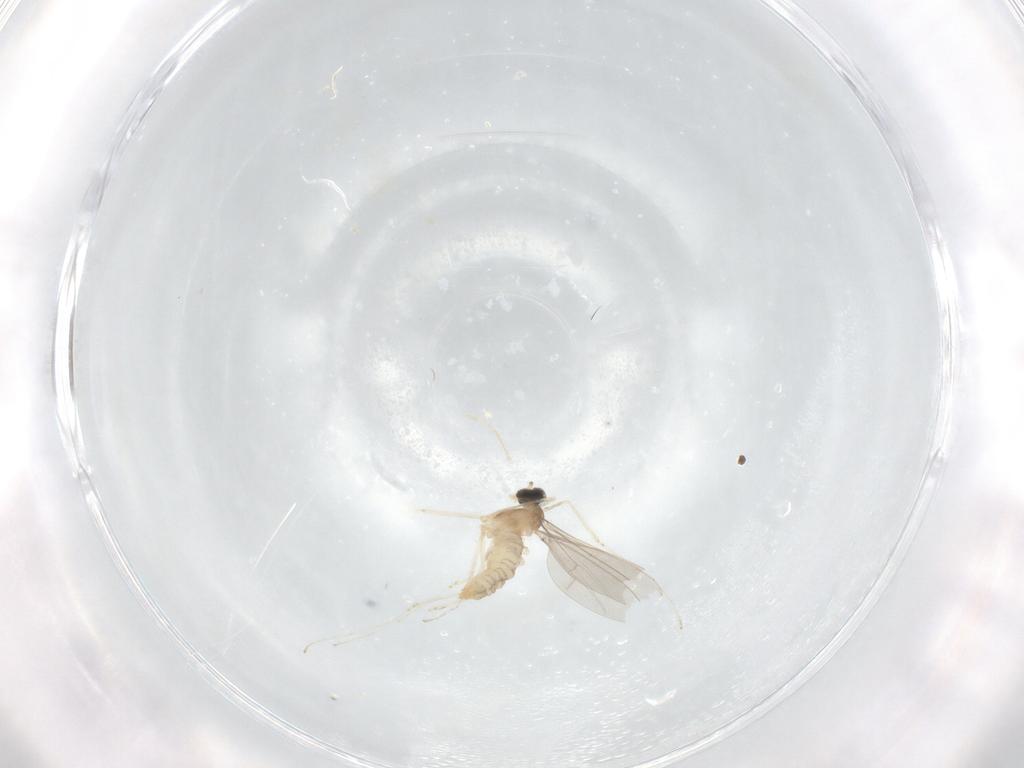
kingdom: Animalia
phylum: Arthropoda
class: Insecta
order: Diptera
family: Cecidomyiidae
